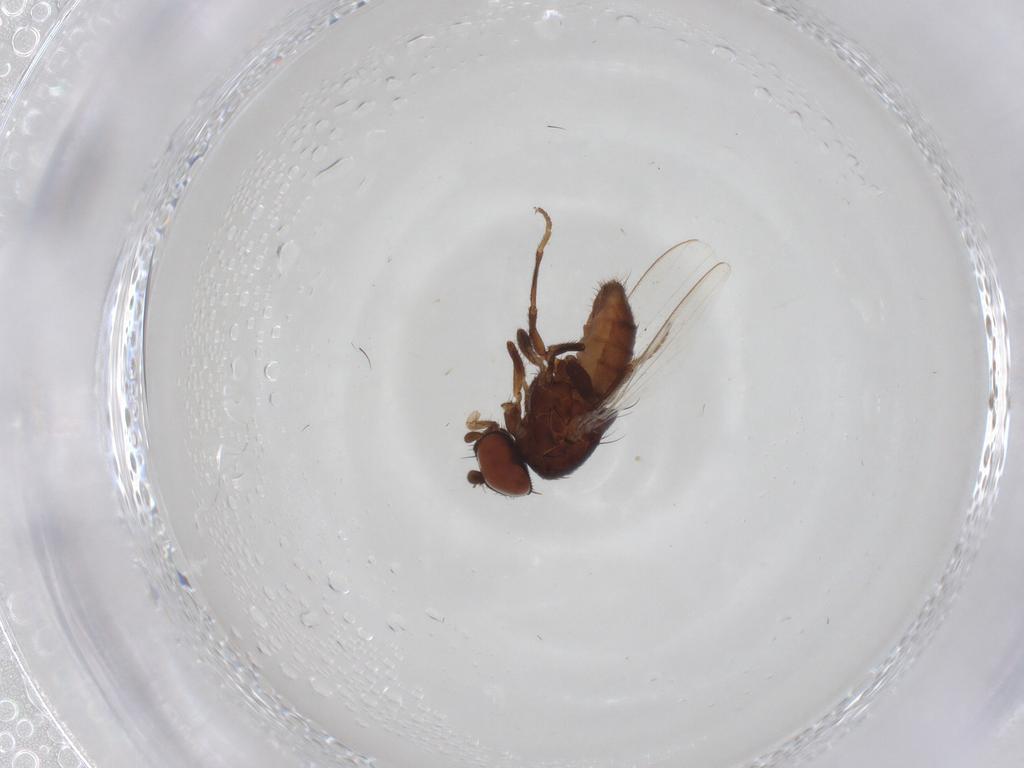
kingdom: Animalia
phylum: Arthropoda
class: Insecta
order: Diptera
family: Milichiidae
